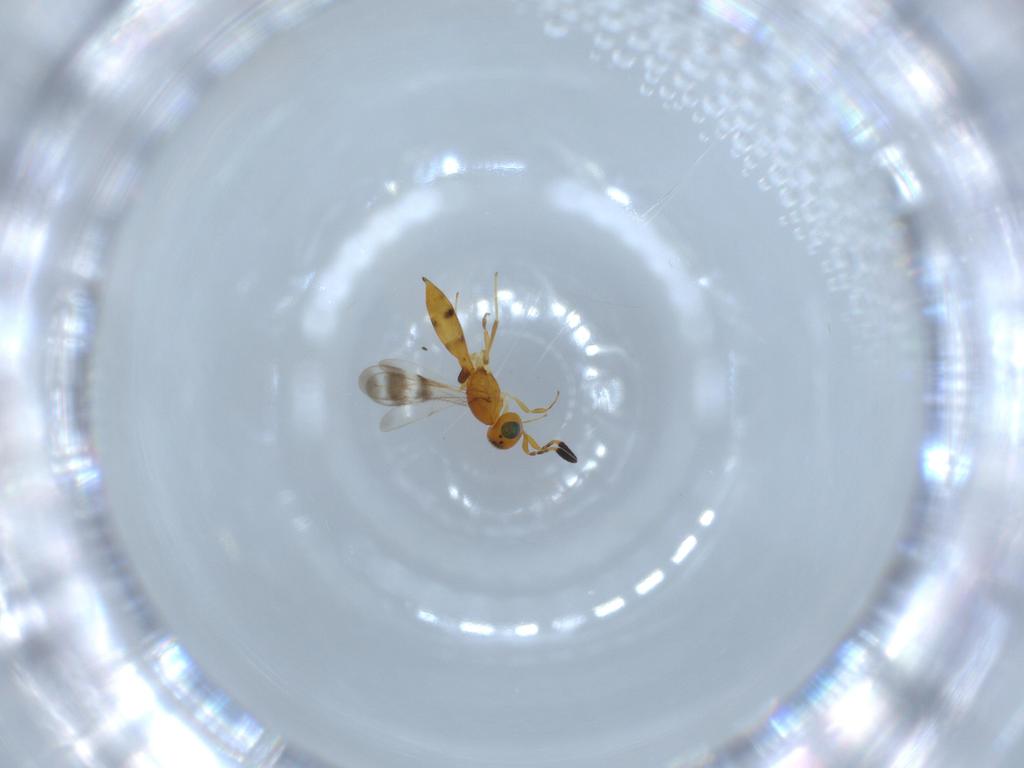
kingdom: Animalia
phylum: Arthropoda
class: Insecta
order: Hymenoptera
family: Scelionidae
